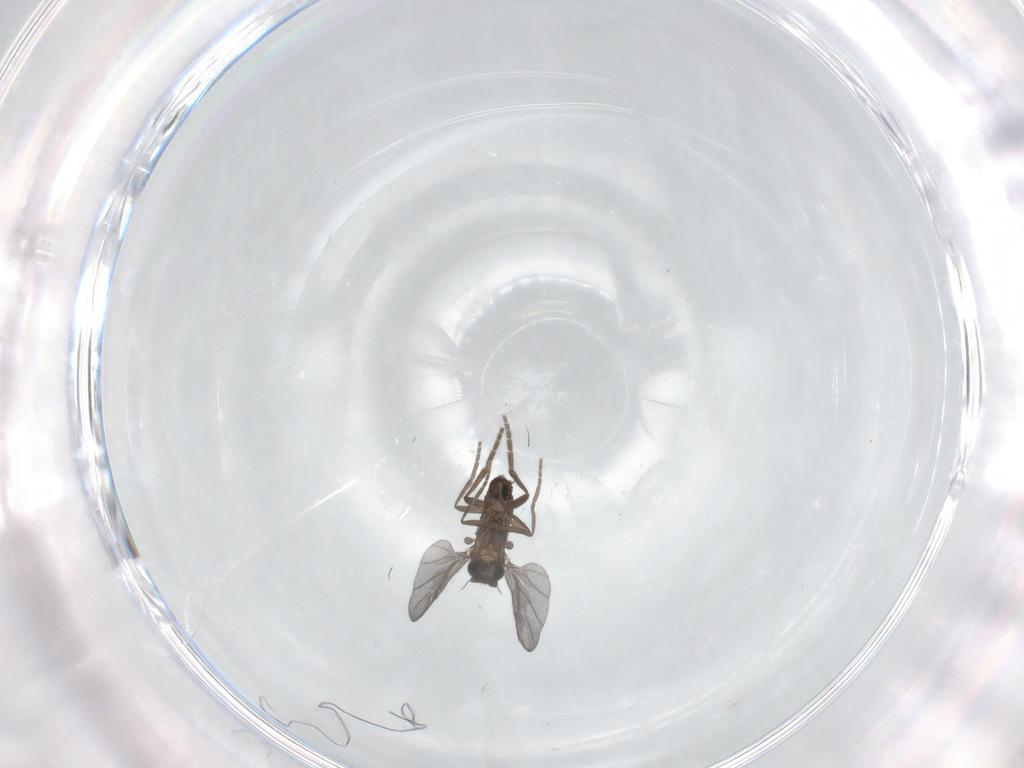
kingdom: Animalia
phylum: Arthropoda
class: Insecta
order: Diptera
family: Phoridae
